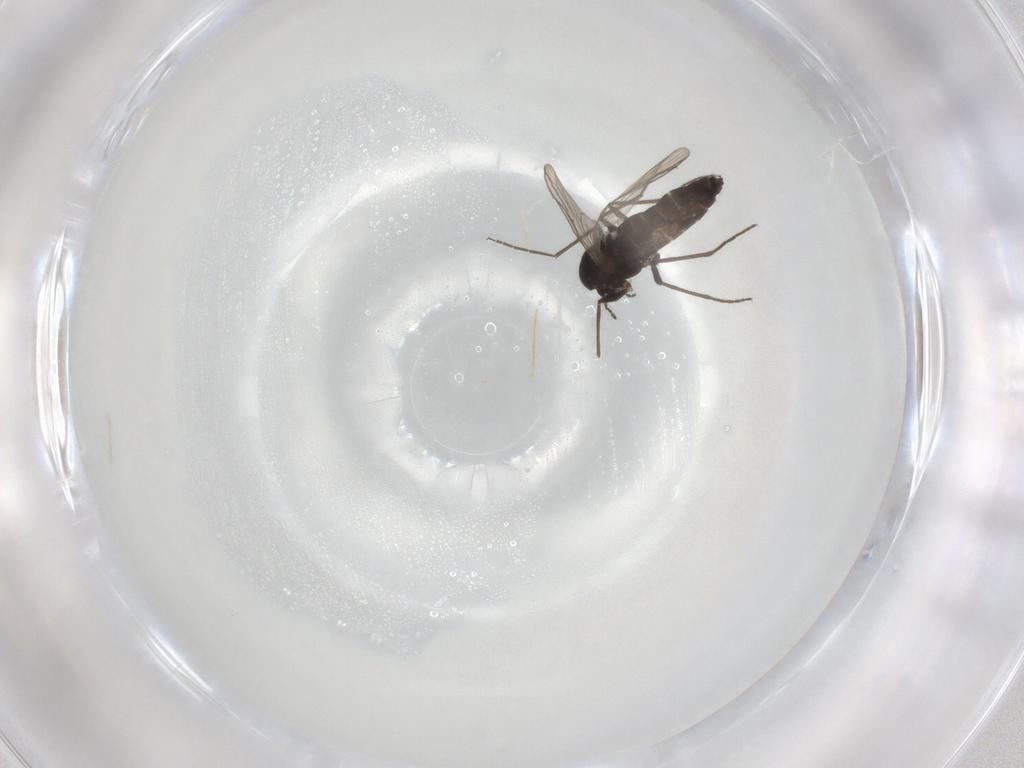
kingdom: Animalia
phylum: Arthropoda
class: Insecta
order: Diptera
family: Chironomidae
